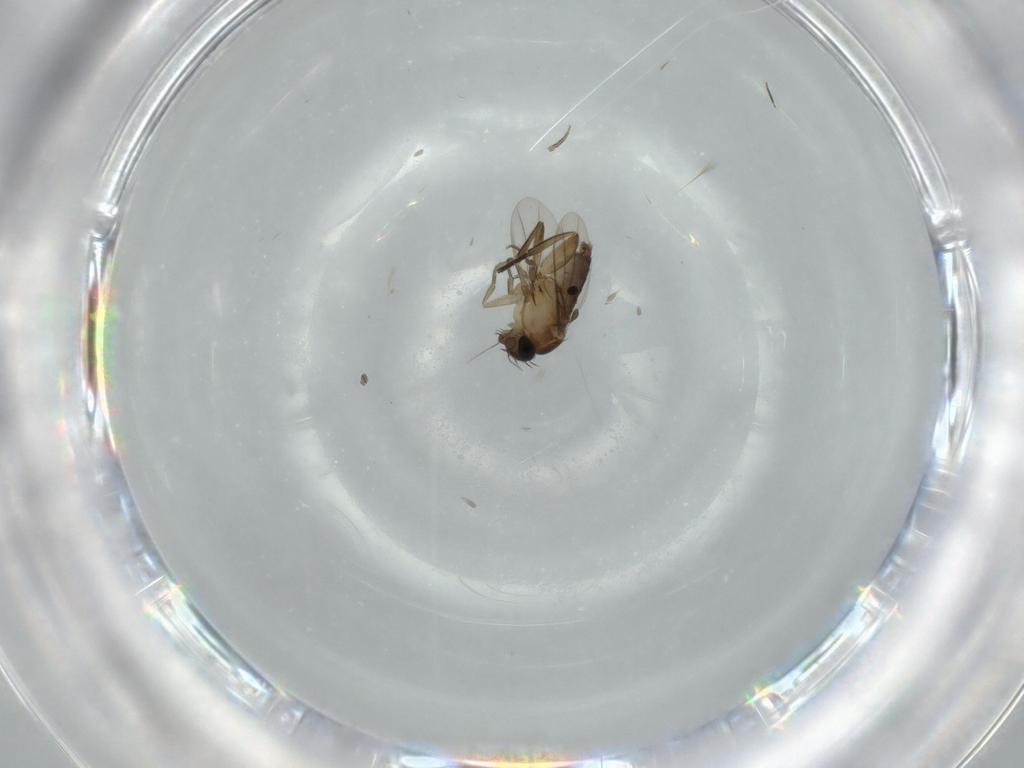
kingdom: Animalia
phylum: Arthropoda
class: Insecta
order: Diptera
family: Phoridae
